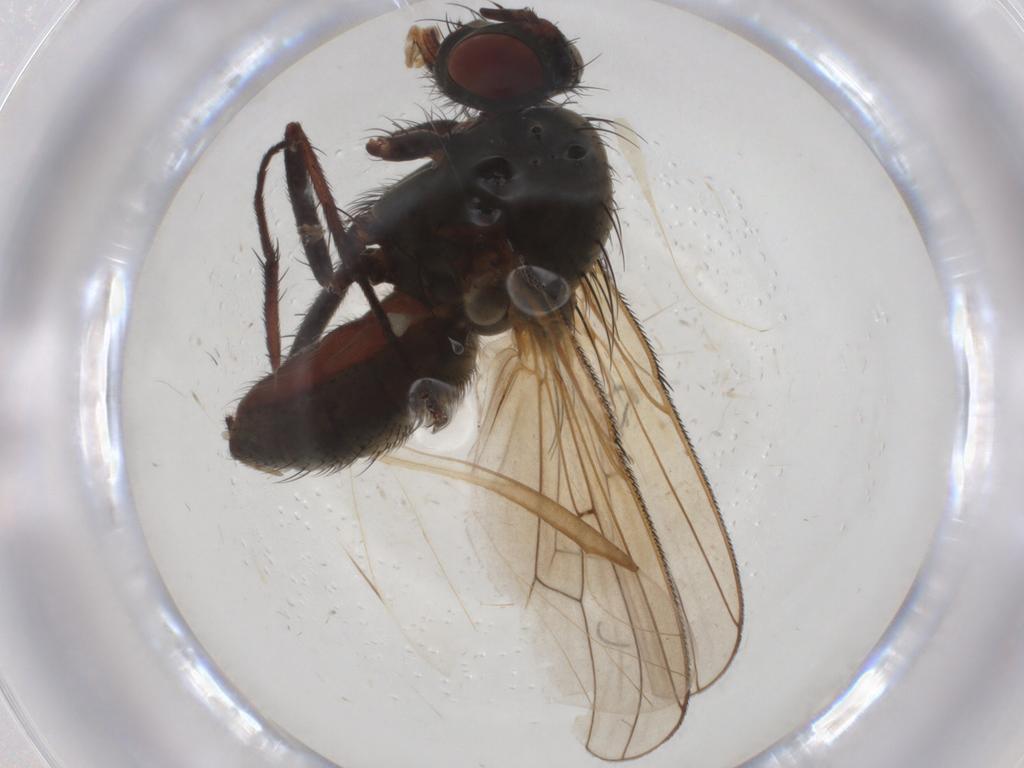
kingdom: Animalia
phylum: Arthropoda
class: Insecta
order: Diptera
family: Anthomyiidae
